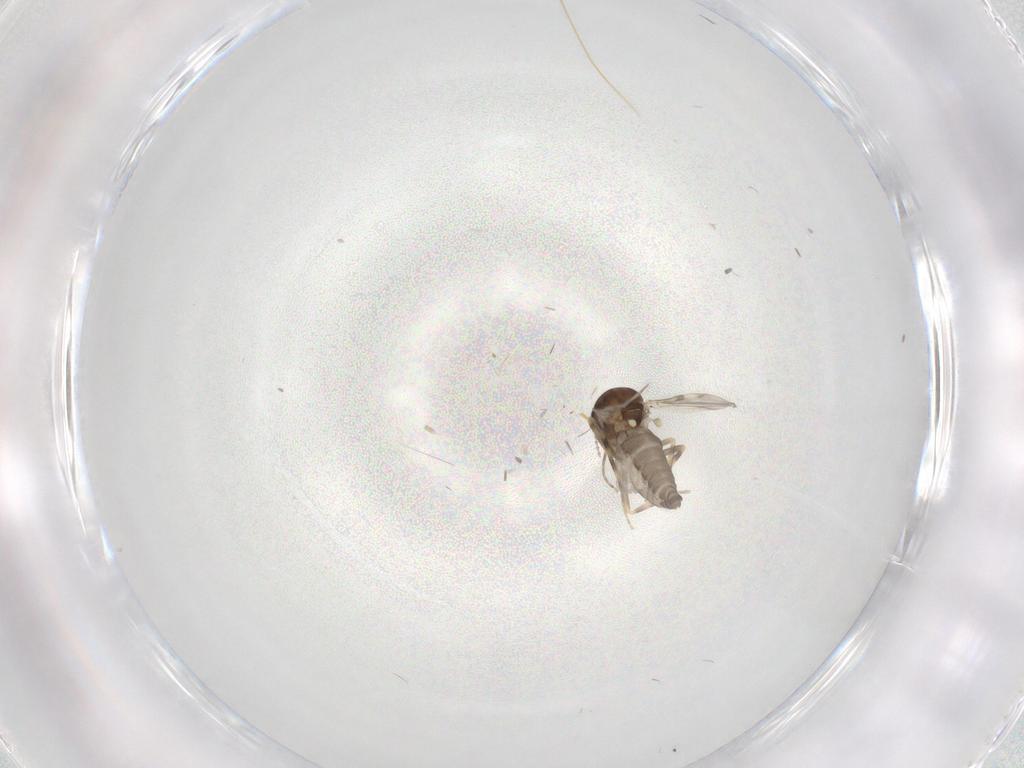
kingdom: Animalia
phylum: Arthropoda
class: Insecta
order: Diptera
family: Ceratopogonidae
